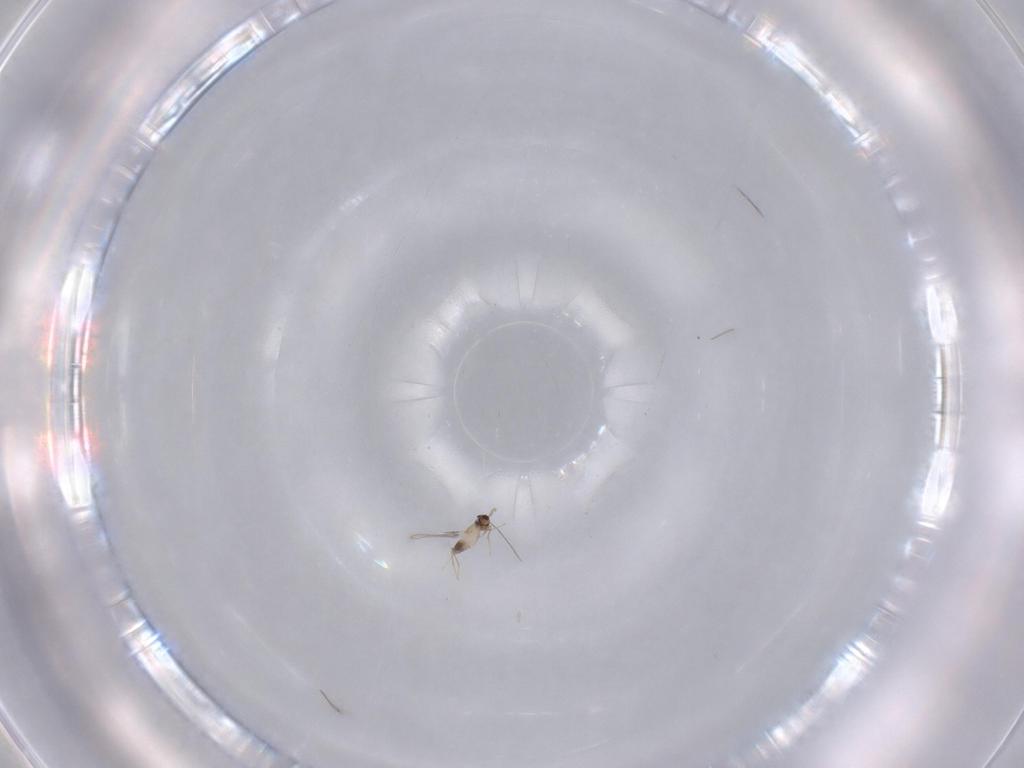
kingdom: Animalia
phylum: Arthropoda
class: Insecta
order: Hymenoptera
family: Mymaridae
